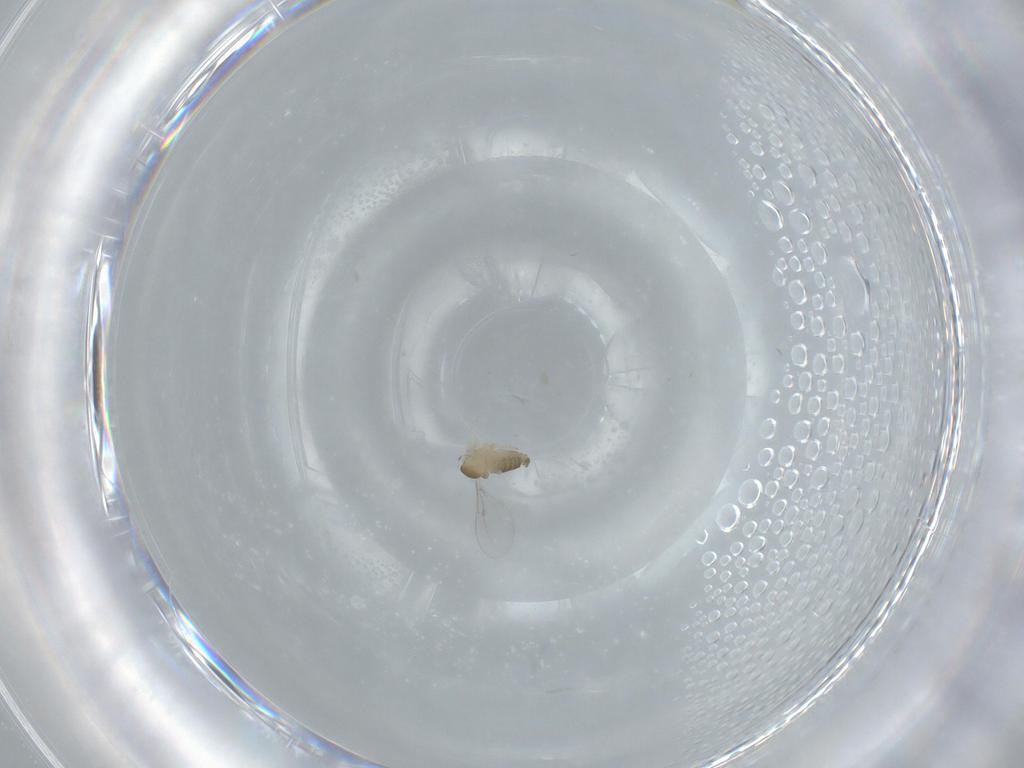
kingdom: Animalia
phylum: Arthropoda
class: Insecta
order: Diptera
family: Cecidomyiidae
